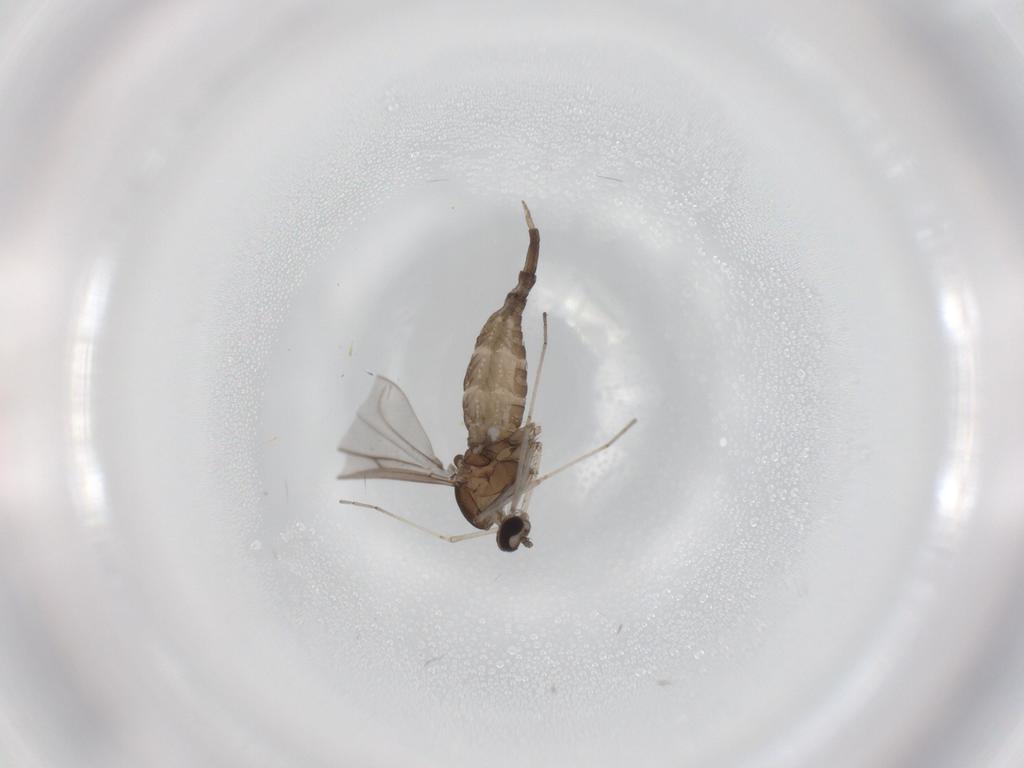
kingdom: Animalia
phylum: Arthropoda
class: Insecta
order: Diptera
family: Cecidomyiidae
